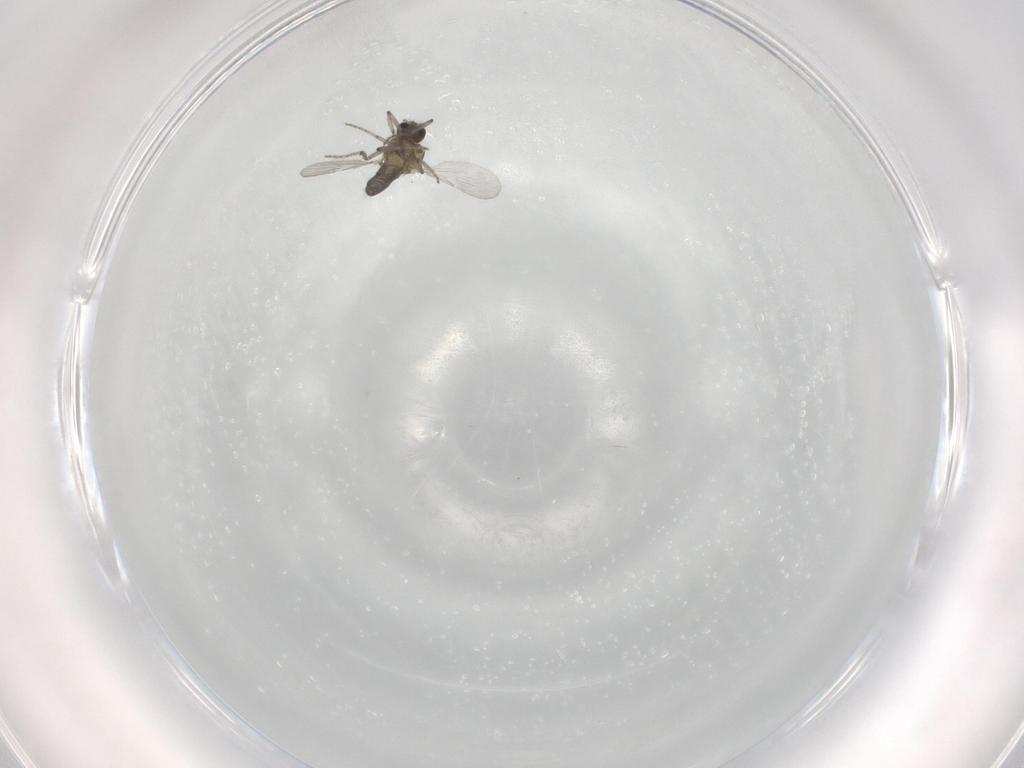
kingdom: Animalia
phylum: Arthropoda
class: Insecta
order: Diptera
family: Ceratopogonidae
